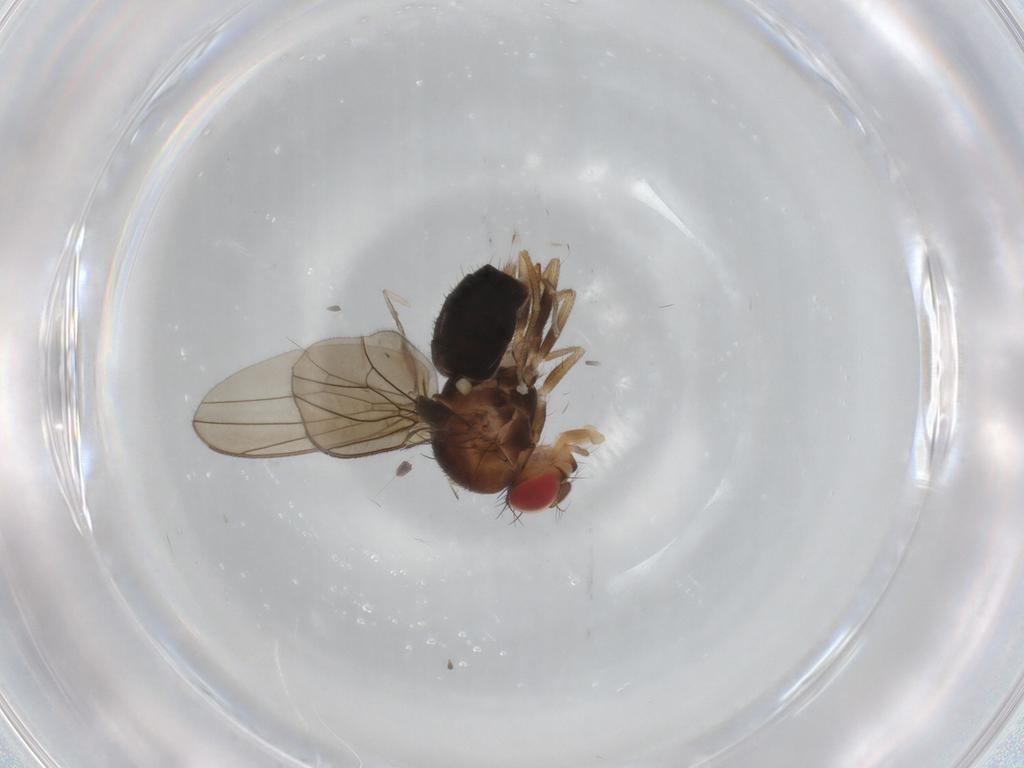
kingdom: Animalia
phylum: Arthropoda
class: Insecta
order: Diptera
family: Drosophilidae
